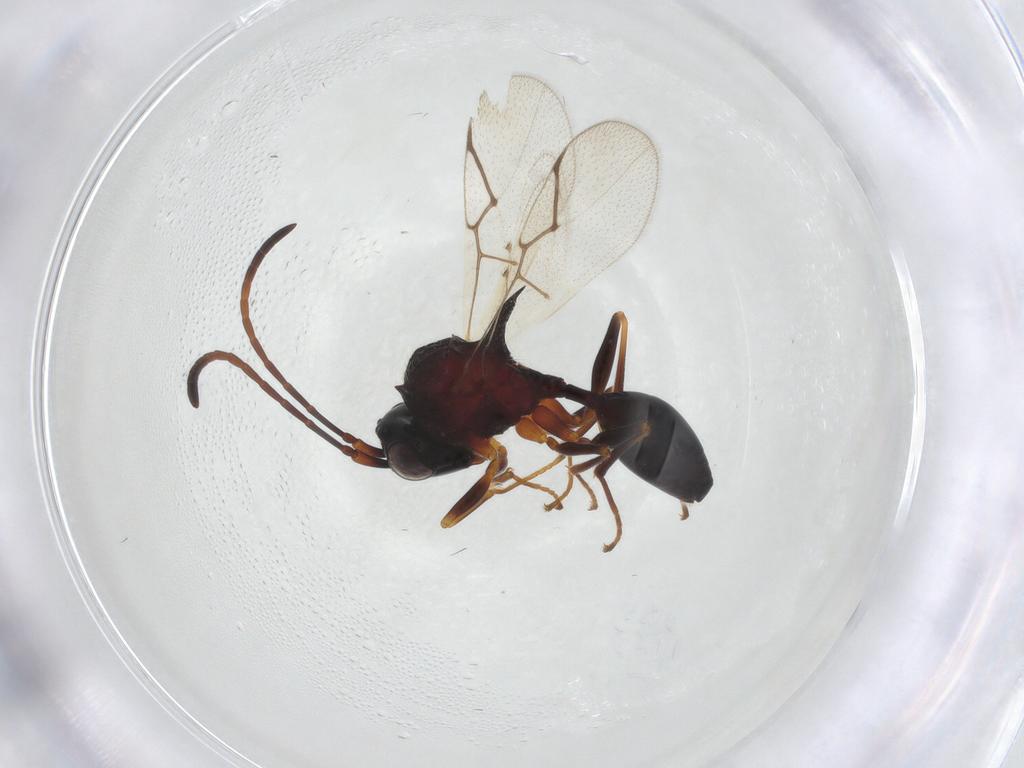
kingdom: Animalia
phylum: Arthropoda
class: Insecta
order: Hymenoptera
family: Figitidae
